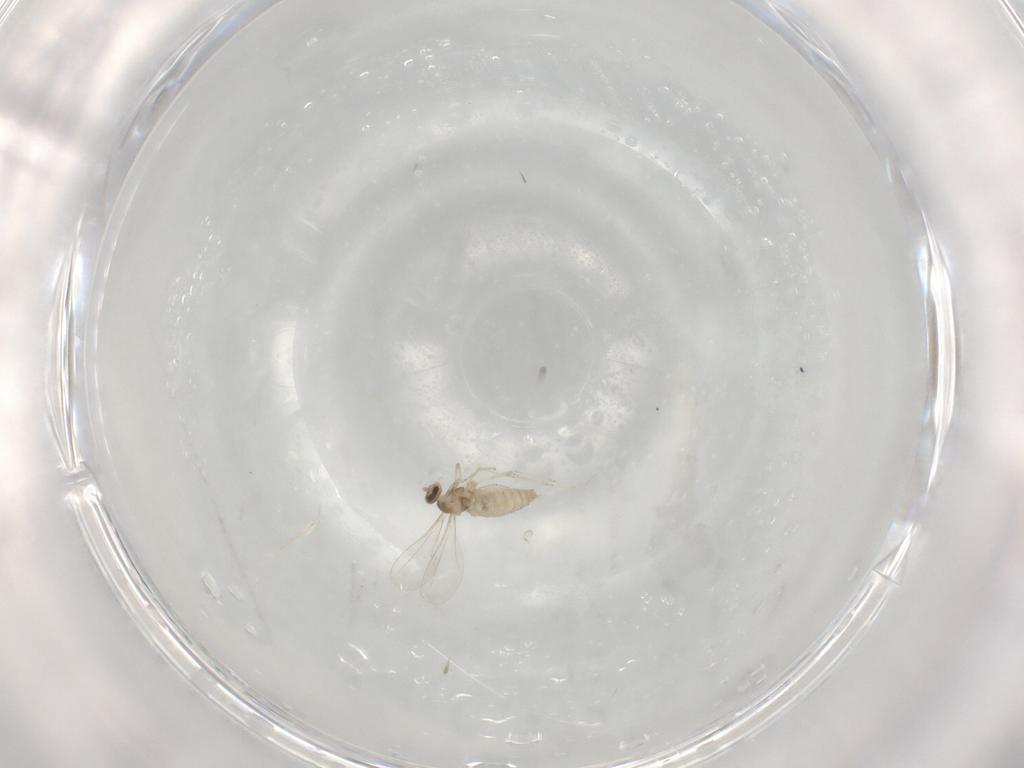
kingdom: Animalia
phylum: Arthropoda
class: Insecta
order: Diptera
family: Cecidomyiidae
